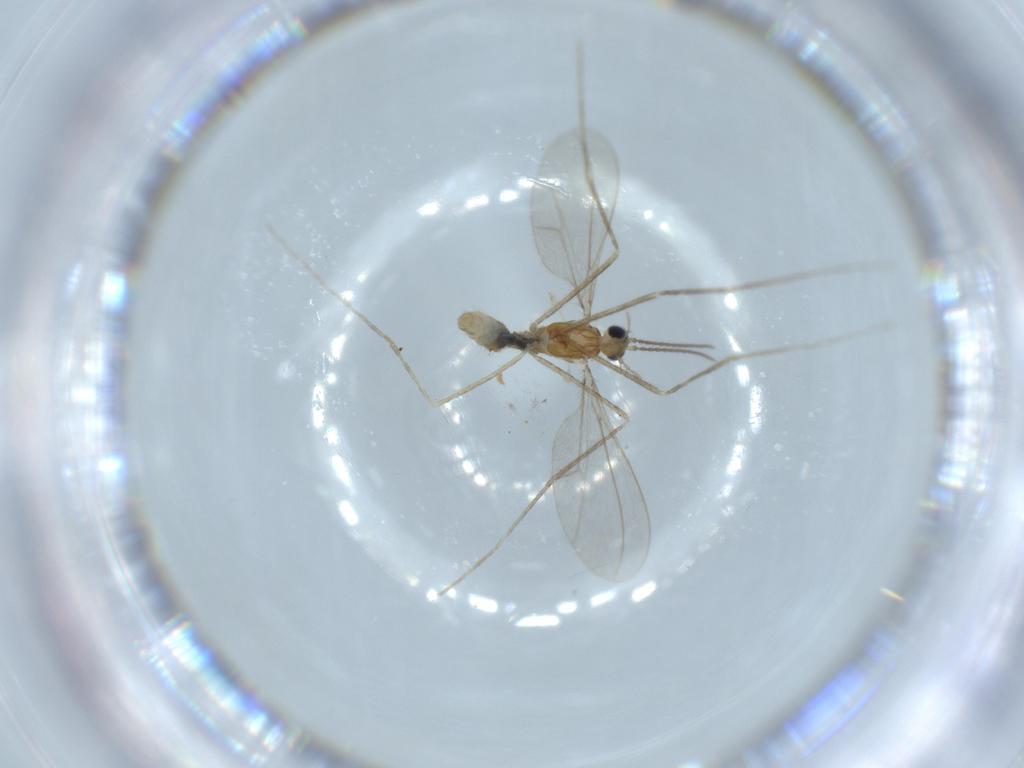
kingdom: Animalia
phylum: Arthropoda
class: Insecta
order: Diptera
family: Cecidomyiidae
